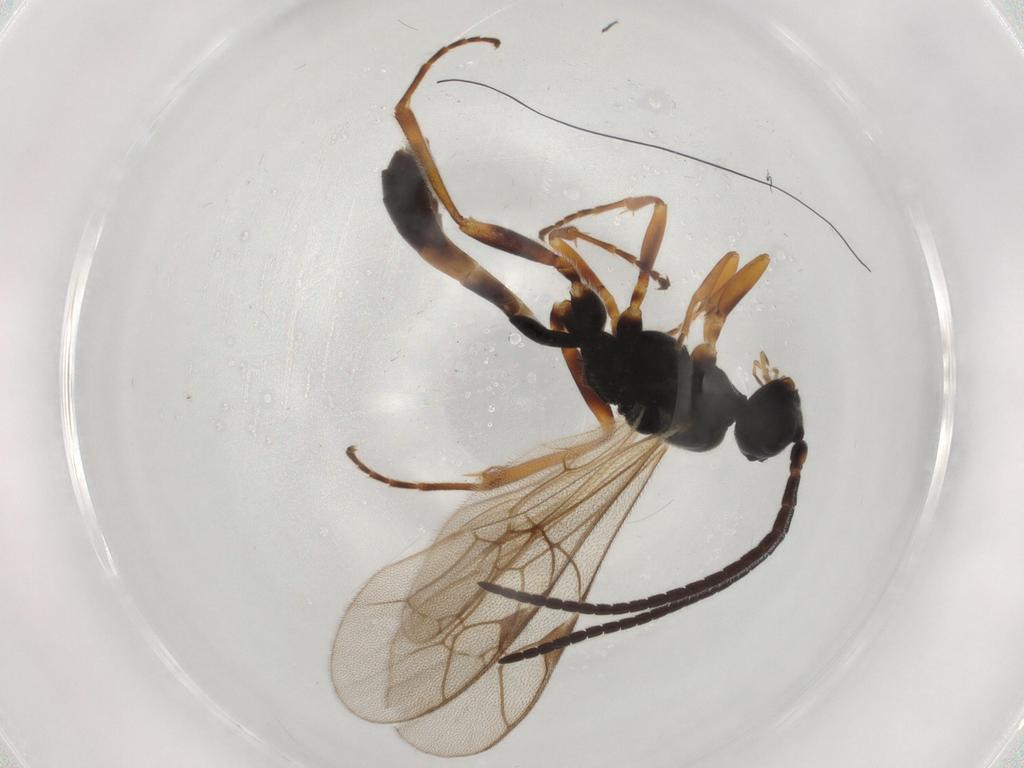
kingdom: Animalia
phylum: Arthropoda
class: Insecta
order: Hymenoptera
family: Ichneumonidae
